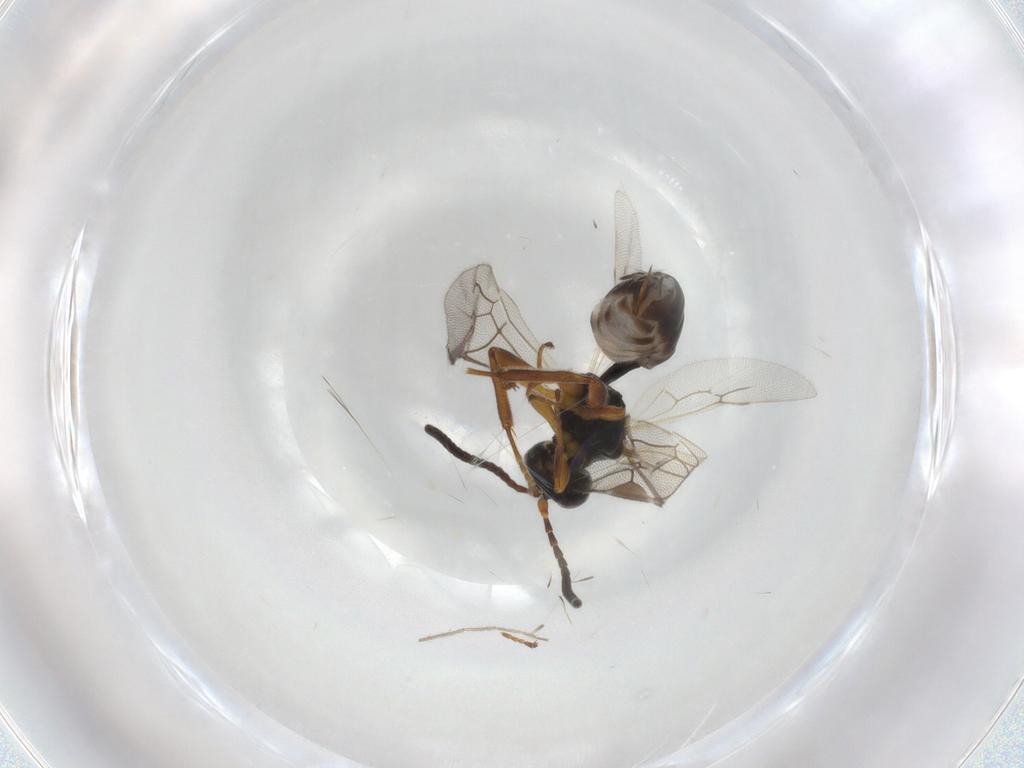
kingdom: Animalia
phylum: Arthropoda
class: Insecta
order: Hymenoptera
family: Ichneumonidae
